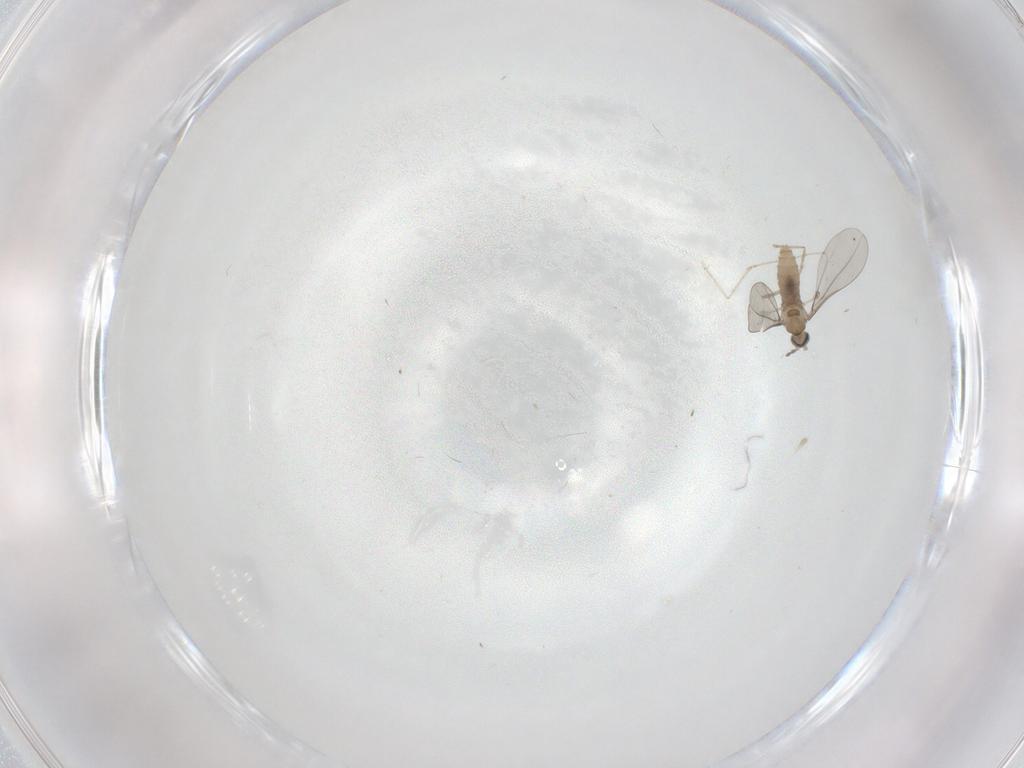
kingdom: Animalia
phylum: Arthropoda
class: Insecta
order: Diptera
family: Cecidomyiidae
